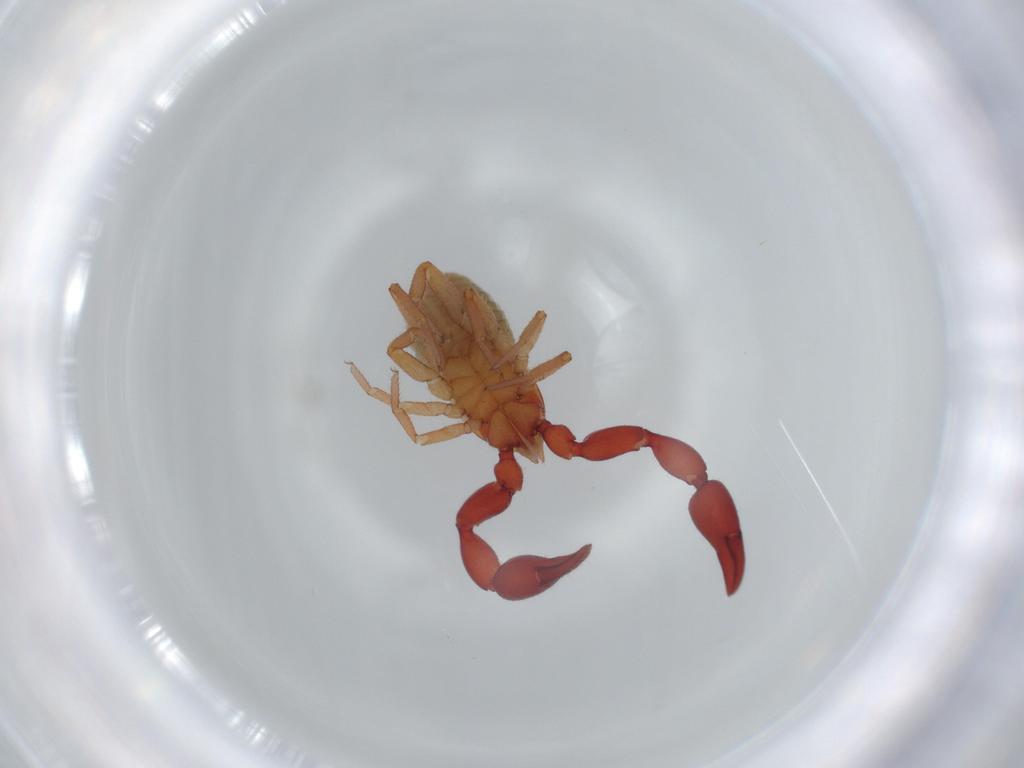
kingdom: Animalia
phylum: Arthropoda
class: Arachnida
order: Pseudoscorpiones
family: Chernetidae
